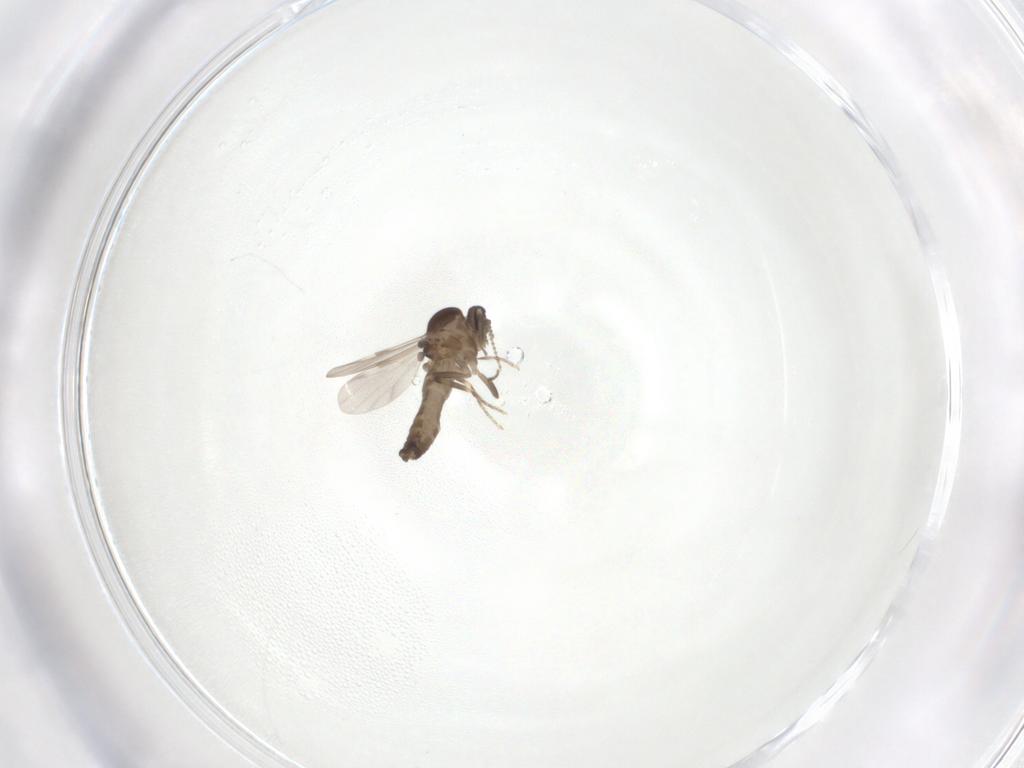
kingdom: Animalia
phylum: Arthropoda
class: Insecta
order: Diptera
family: Ceratopogonidae
